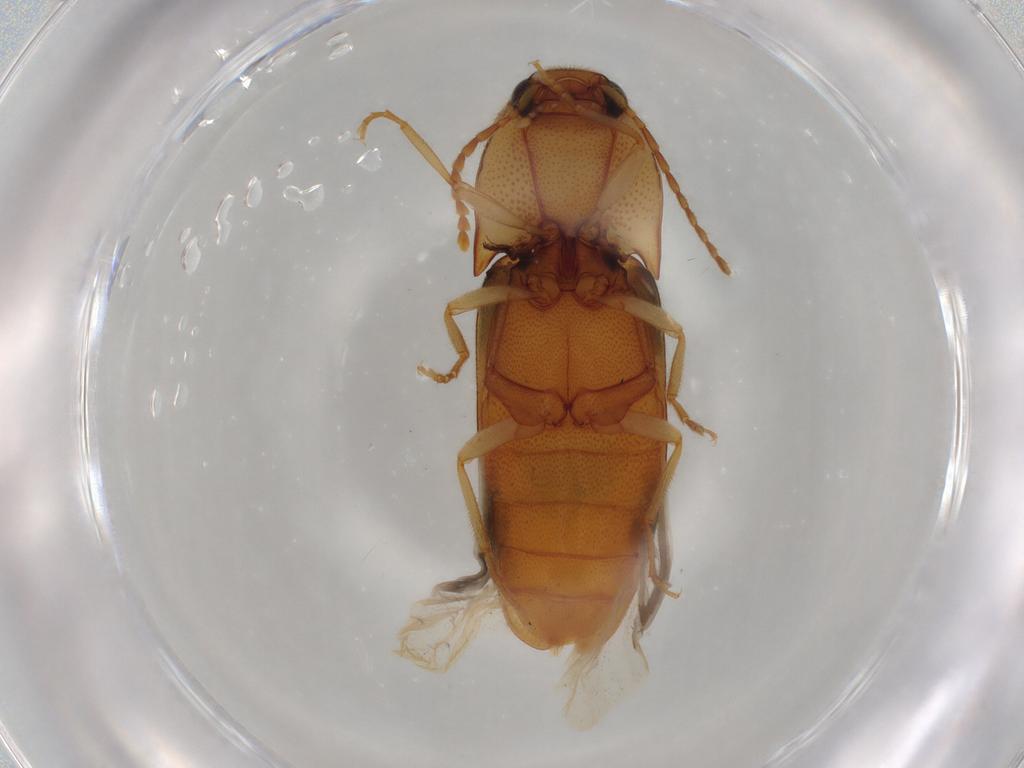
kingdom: Animalia
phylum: Arthropoda
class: Insecta
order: Coleoptera
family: Elateridae
